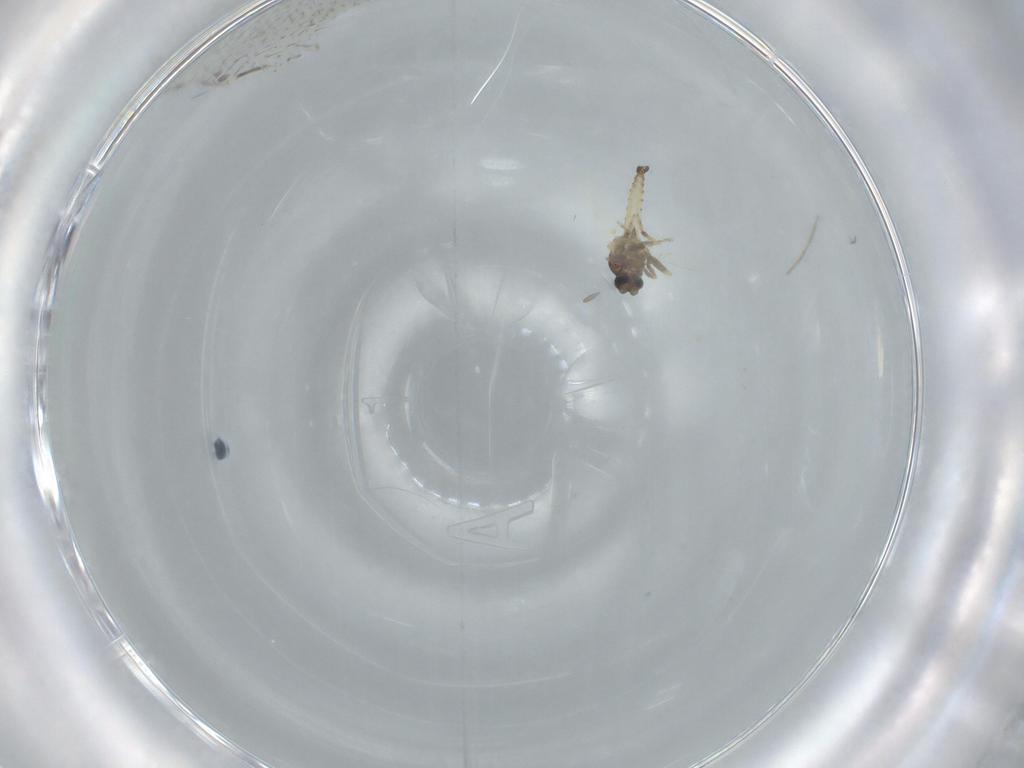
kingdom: Animalia
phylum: Arthropoda
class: Insecta
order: Diptera
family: Ceratopogonidae
